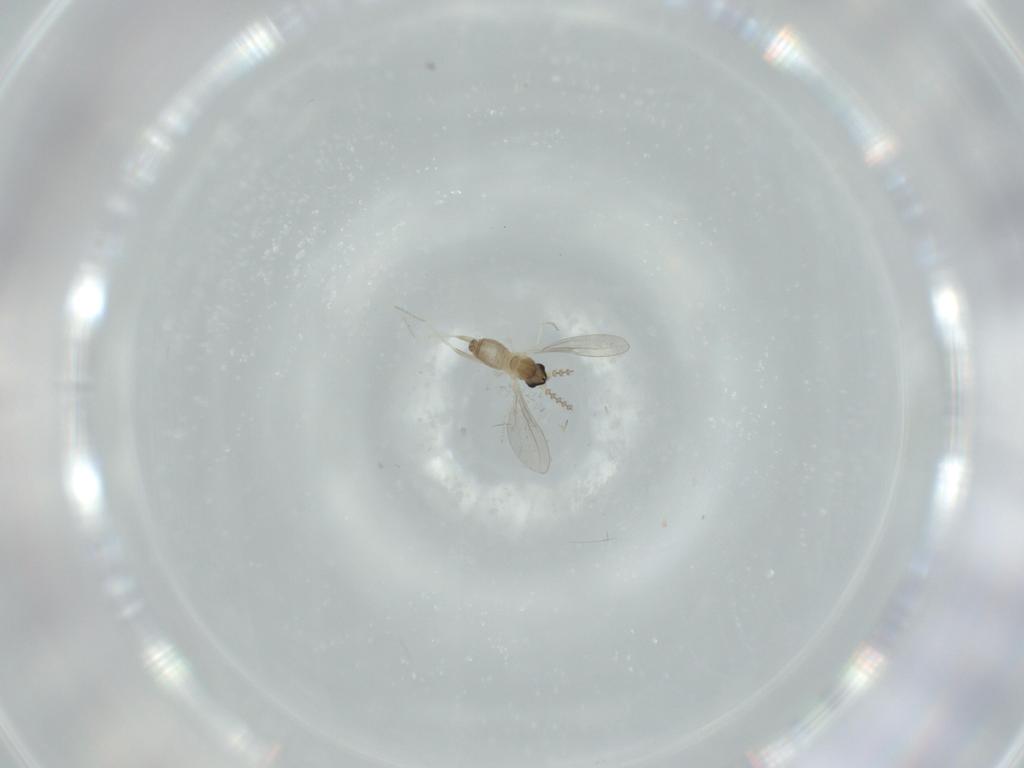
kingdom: Animalia
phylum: Arthropoda
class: Insecta
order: Diptera
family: Cecidomyiidae
